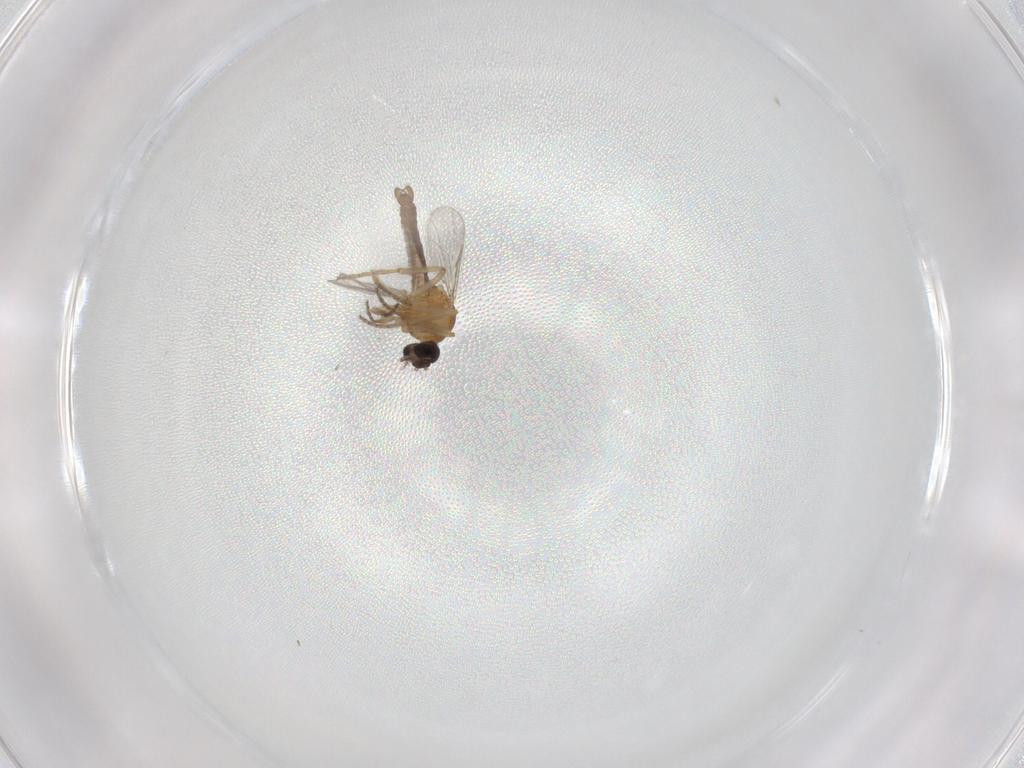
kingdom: Animalia
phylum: Arthropoda
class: Insecta
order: Diptera
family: Ceratopogonidae
